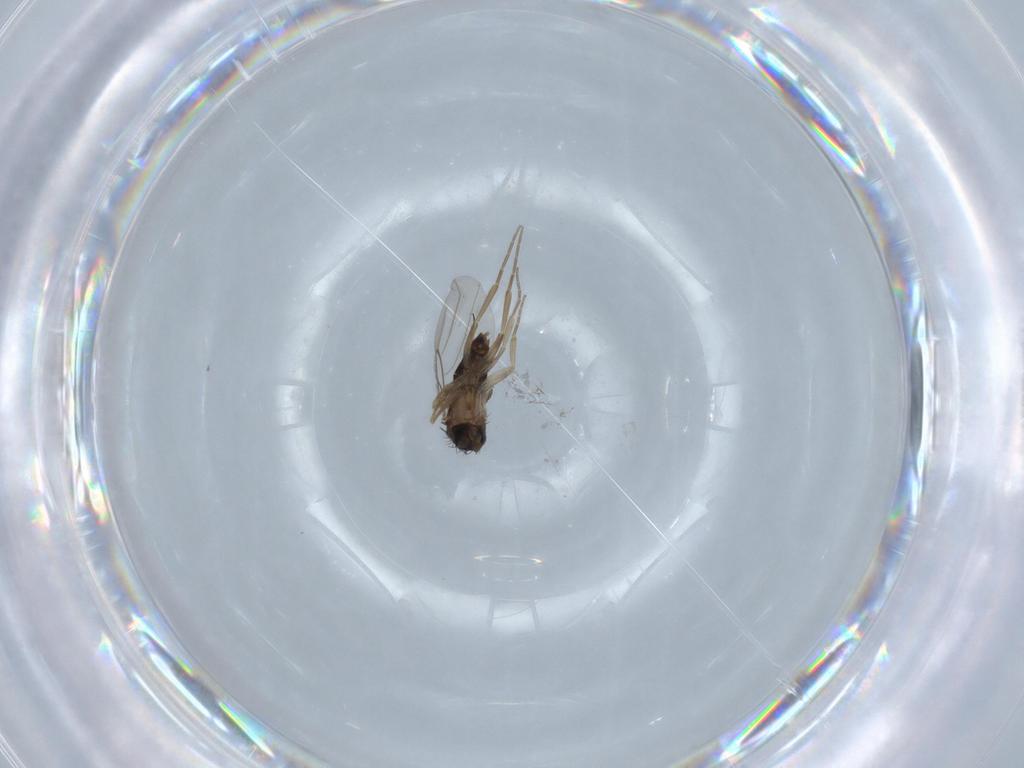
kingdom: Animalia
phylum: Arthropoda
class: Insecta
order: Diptera
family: Phoridae
